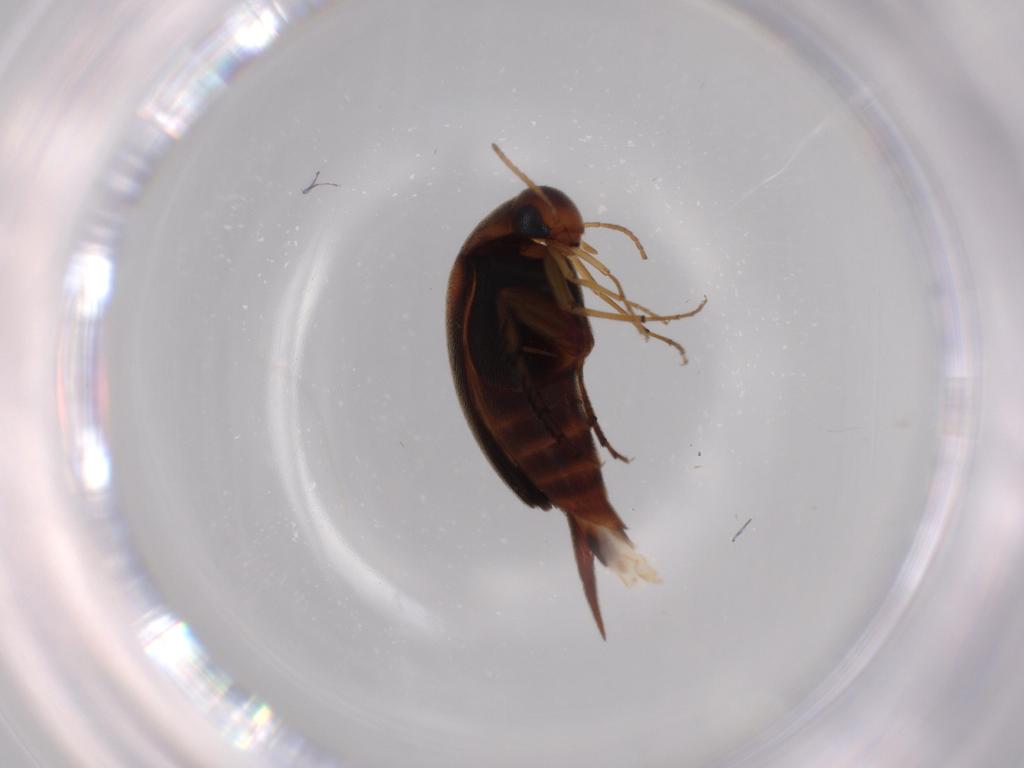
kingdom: Animalia
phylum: Arthropoda
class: Insecta
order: Coleoptera
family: Mordellidae
